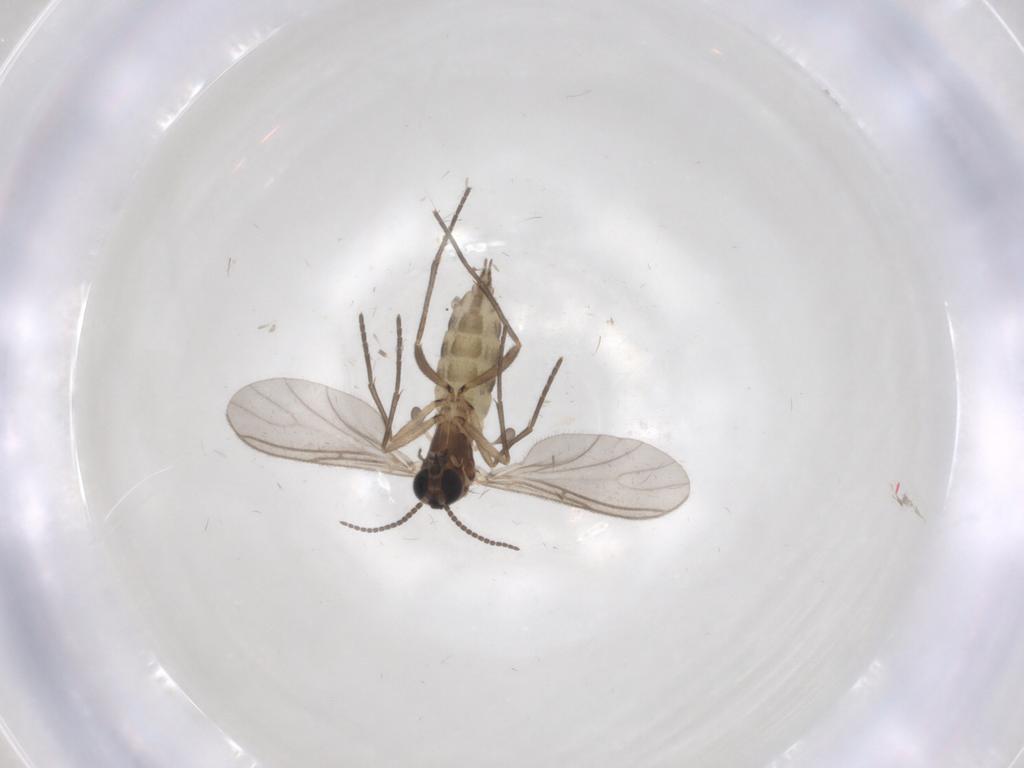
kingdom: Animalia
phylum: Arthropoda
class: Insecta
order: Diptera
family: Sciaridae
